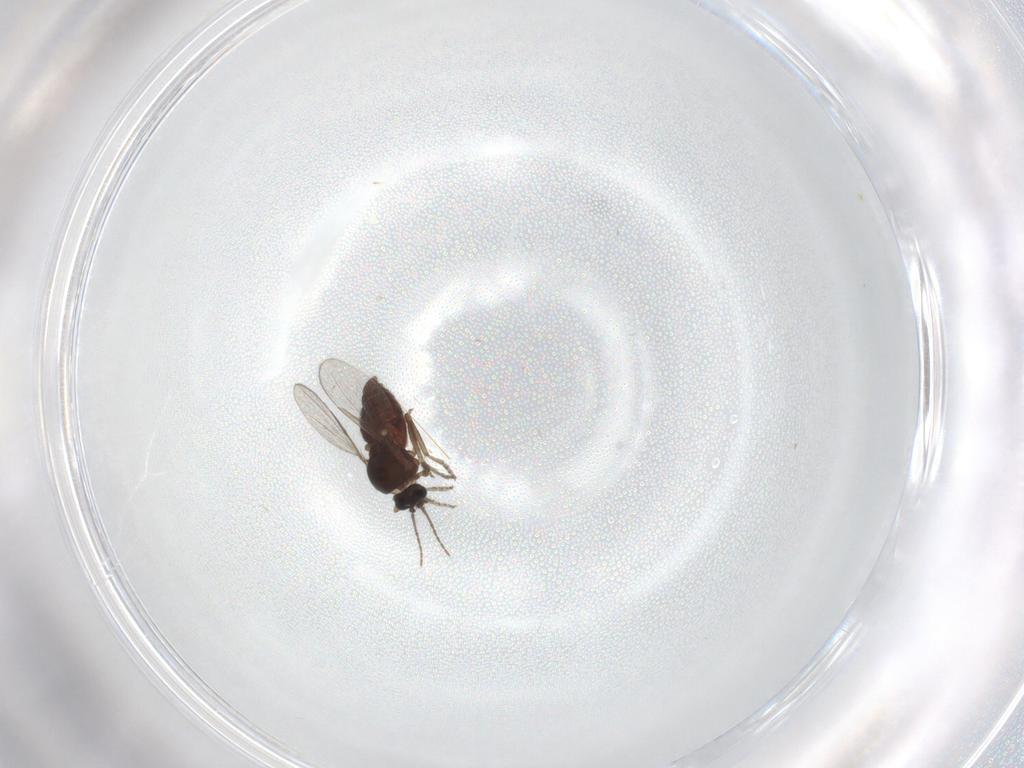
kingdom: Animalia
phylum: Arthropoda
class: Insecta
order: Diptera
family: Ceratopogonidae
